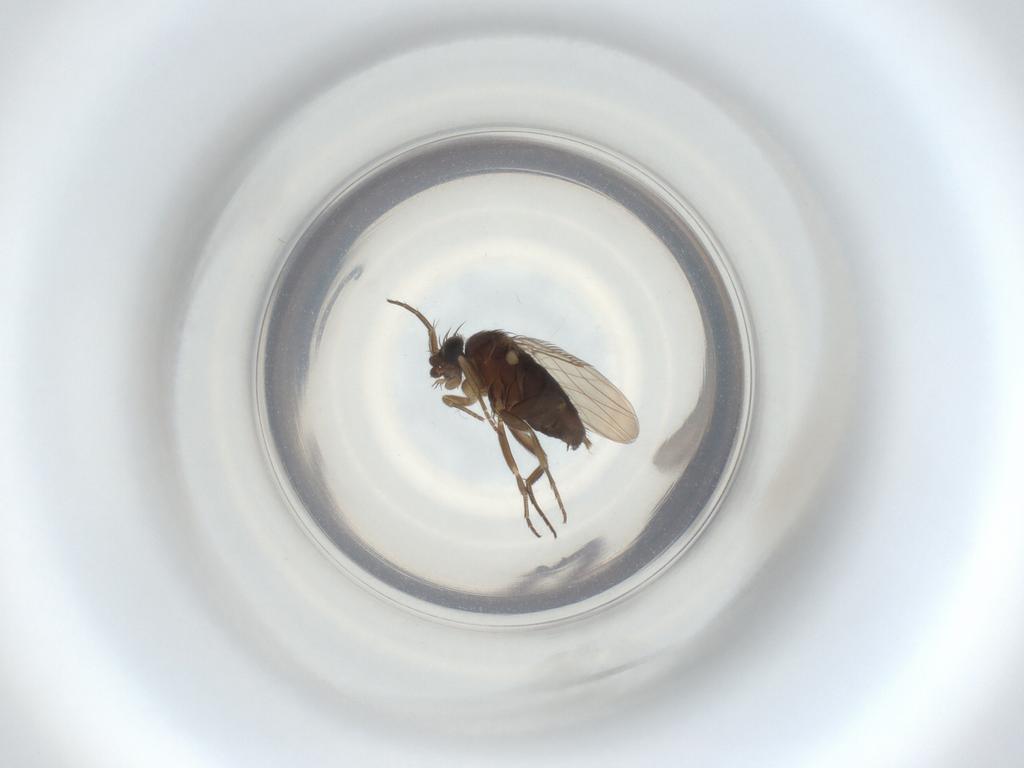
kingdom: Animalia
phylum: Arthropoda
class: Insecta
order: Diptera
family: Phoridae
